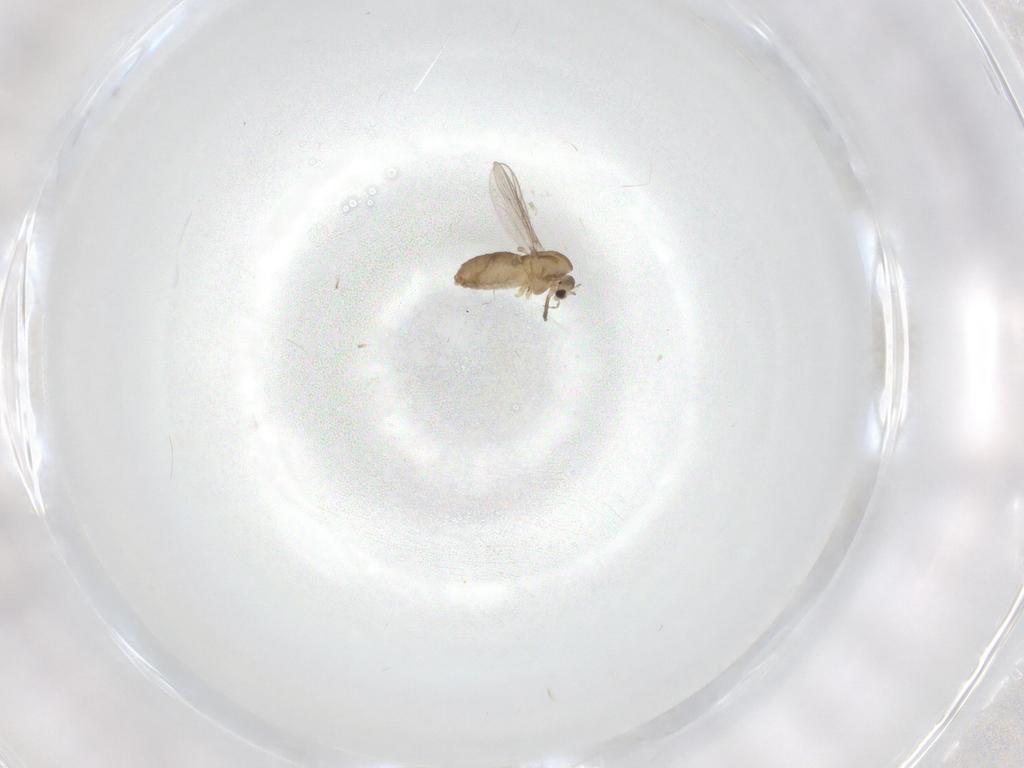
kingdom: Animalia
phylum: Arthropoda
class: Insecta
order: Diptera
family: Chironomidae
